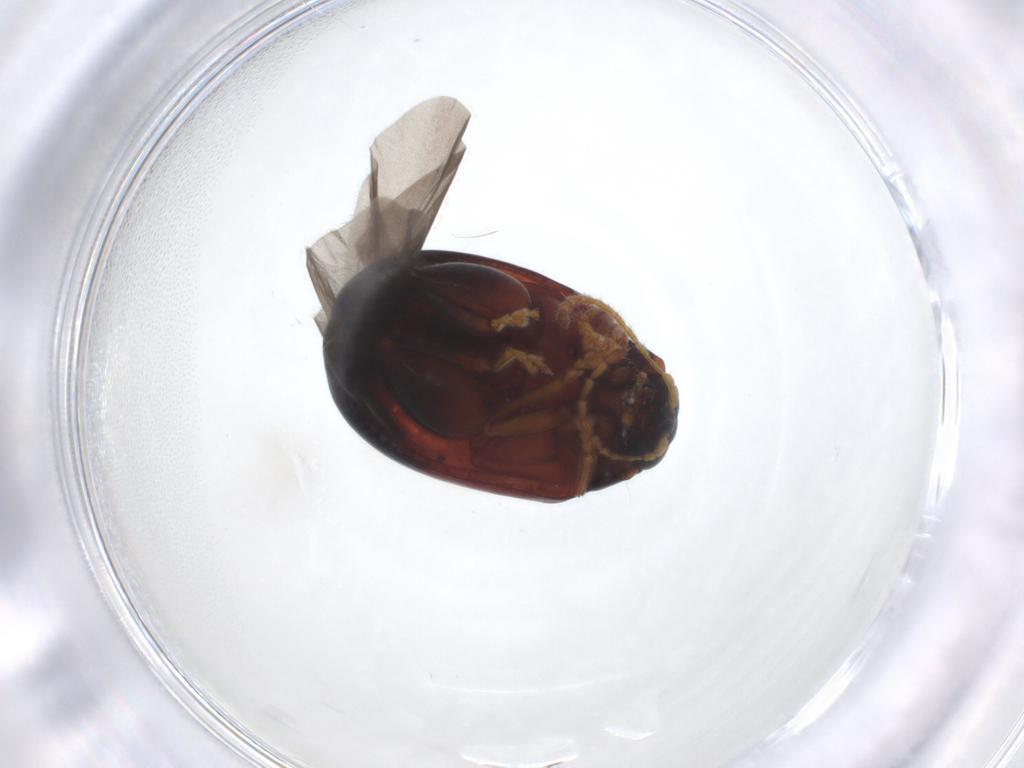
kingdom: Animalia
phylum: Arthropoda
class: Insecta
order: Coleoptera
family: Chrysomelidae
